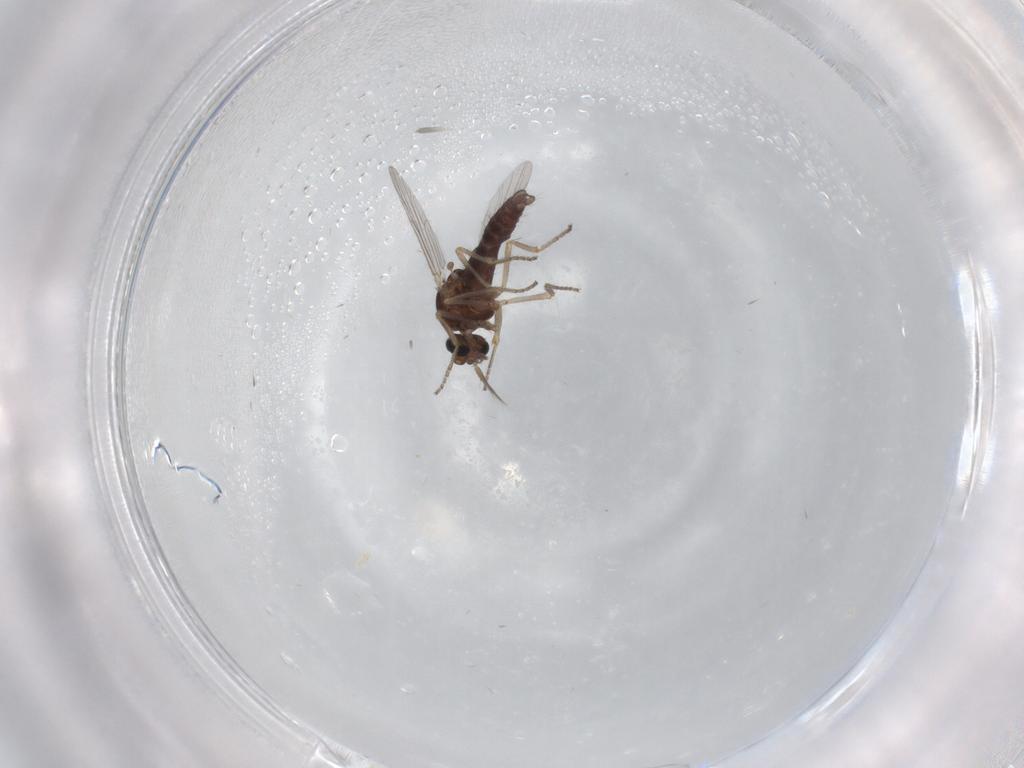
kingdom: Animalia
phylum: Arthropoda
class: Insecta
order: Diptera
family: Ceratopogonidae
